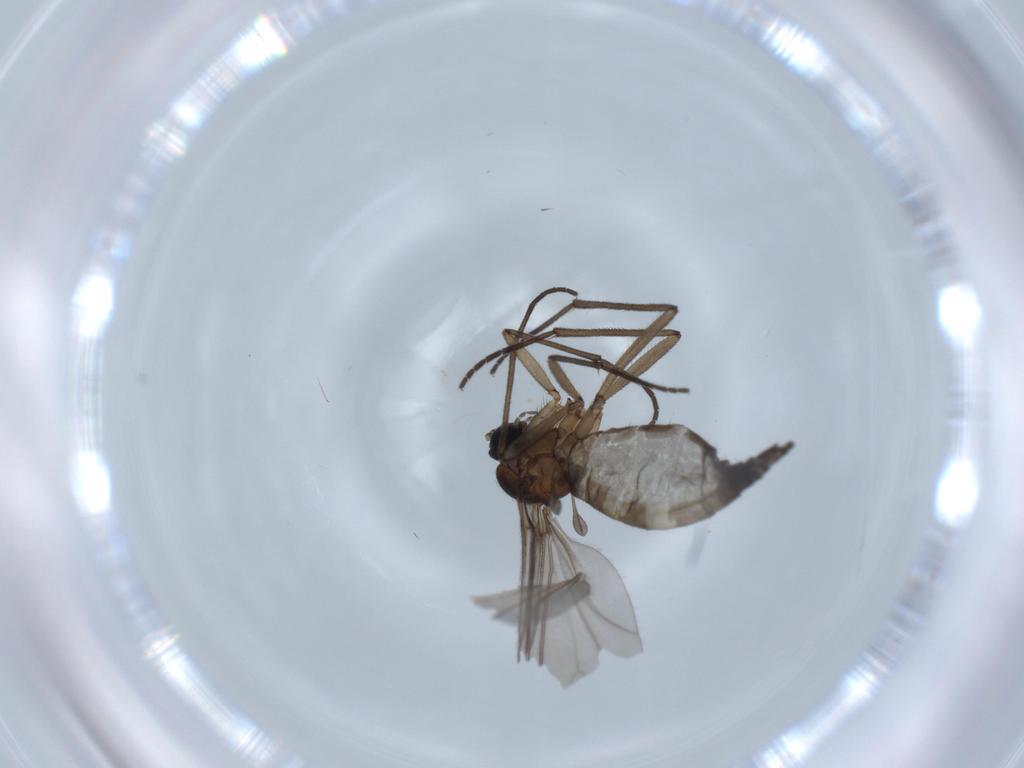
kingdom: Animalia
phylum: Arthropoda
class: Insecta
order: Diptera
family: Sciaridae
